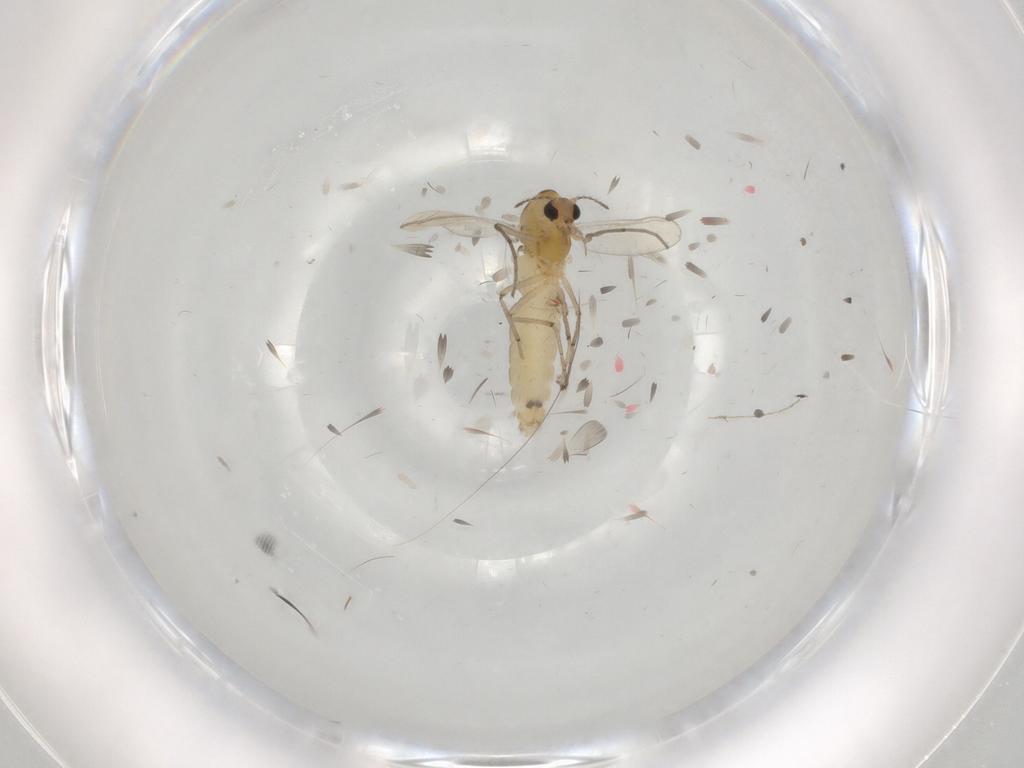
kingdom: Animalia
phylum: Arthropoda
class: Insecta
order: Diptera
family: Cecidomyiidae
